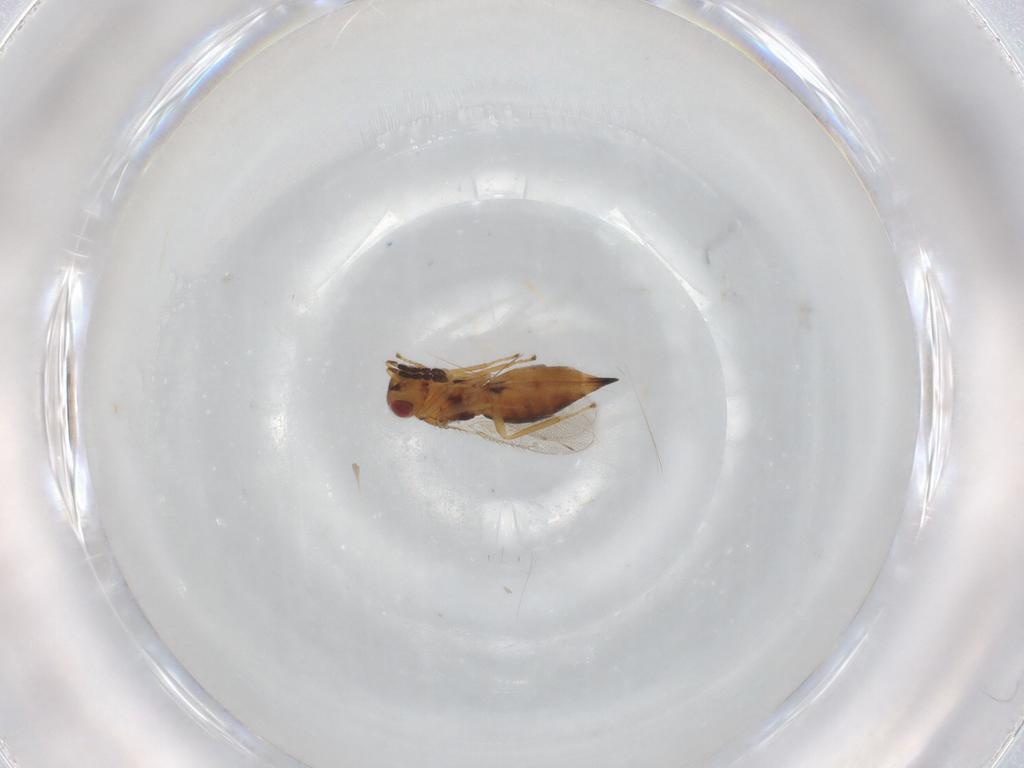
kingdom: Animalia
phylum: Arthropoda
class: Insecta
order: Hymenoptera
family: Eulophidae
